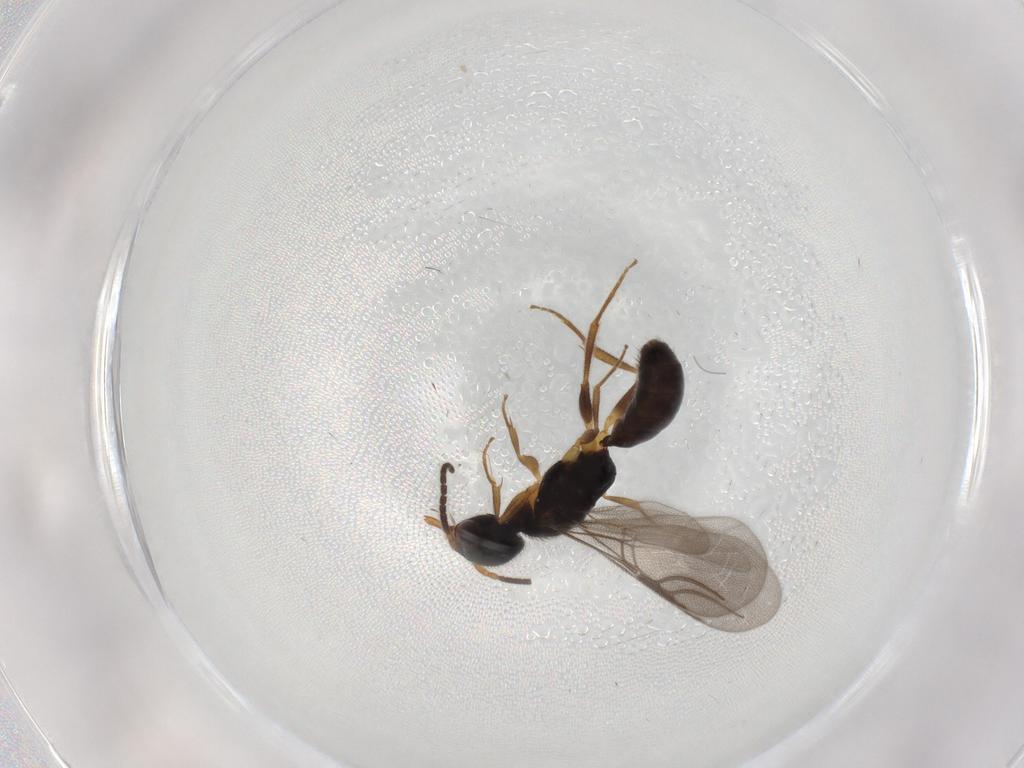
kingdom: Animalia
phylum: Arthropoda
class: Insecta
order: Hymenoptera
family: Bethylidae
